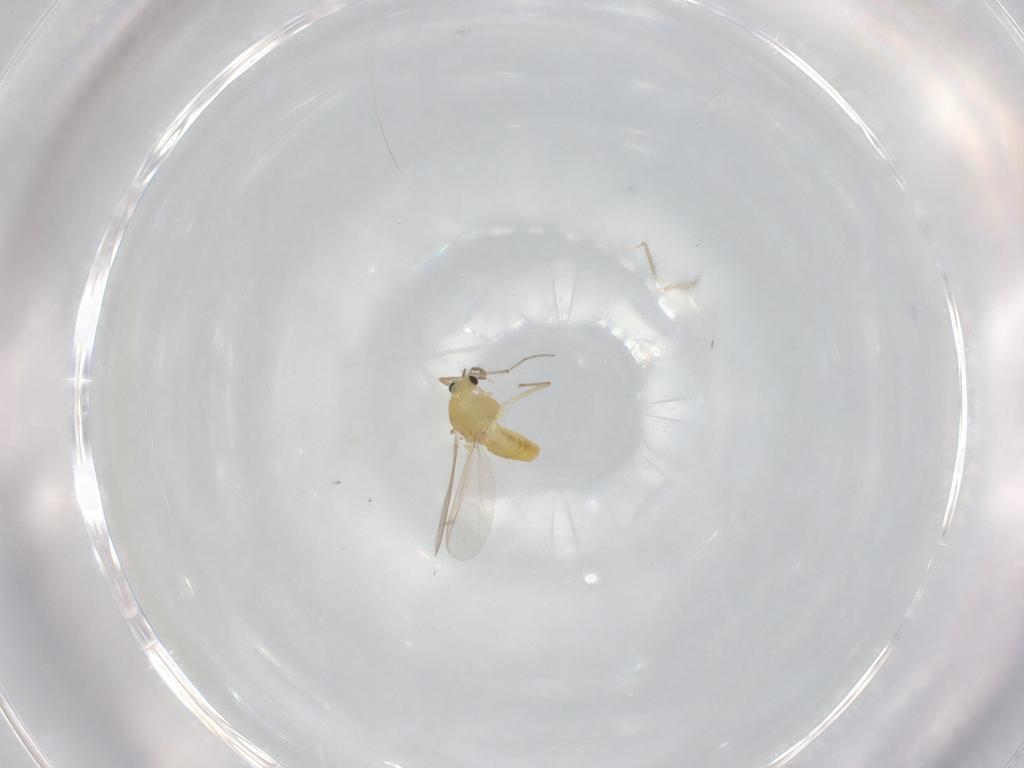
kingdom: Animalia
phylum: Arthropoda
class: Insecta
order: Diptera
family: Chironomidae
